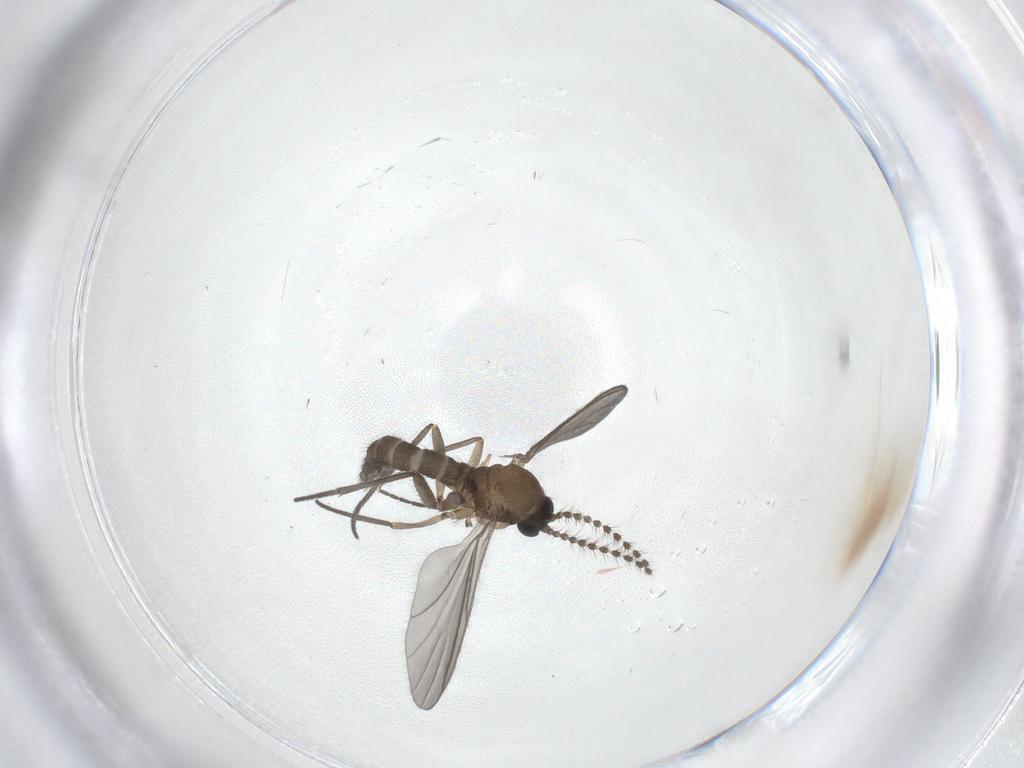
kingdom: Animalia
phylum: Arthropoda
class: Insecta
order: Diptera
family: Sciaridae
